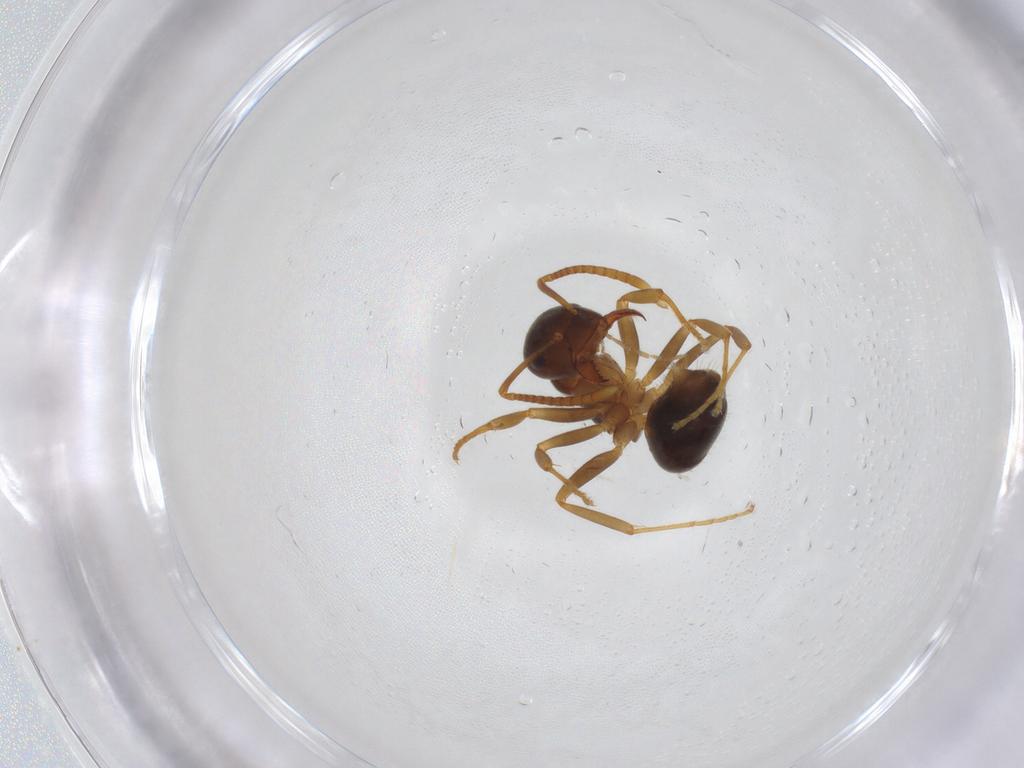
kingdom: Animalia
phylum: Arthropoda
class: Insecta
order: Hymenoptera
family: Formicidae
